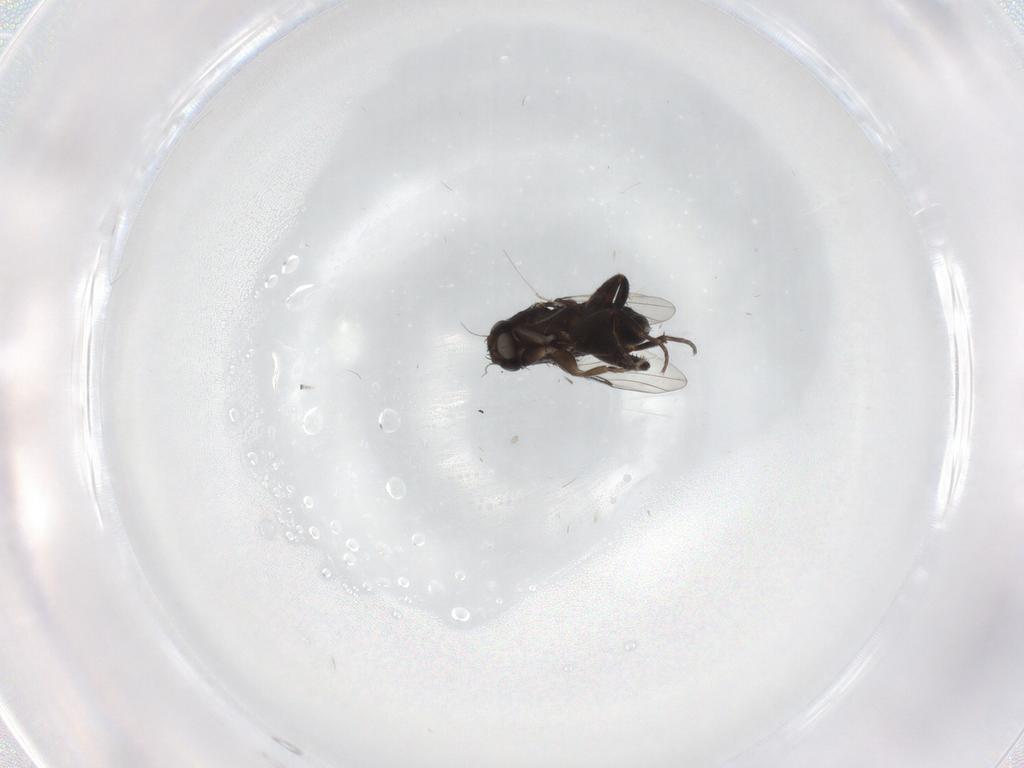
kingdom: Animalia
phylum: Arthropoda
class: Insecta
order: Diptera
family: Phoridae
